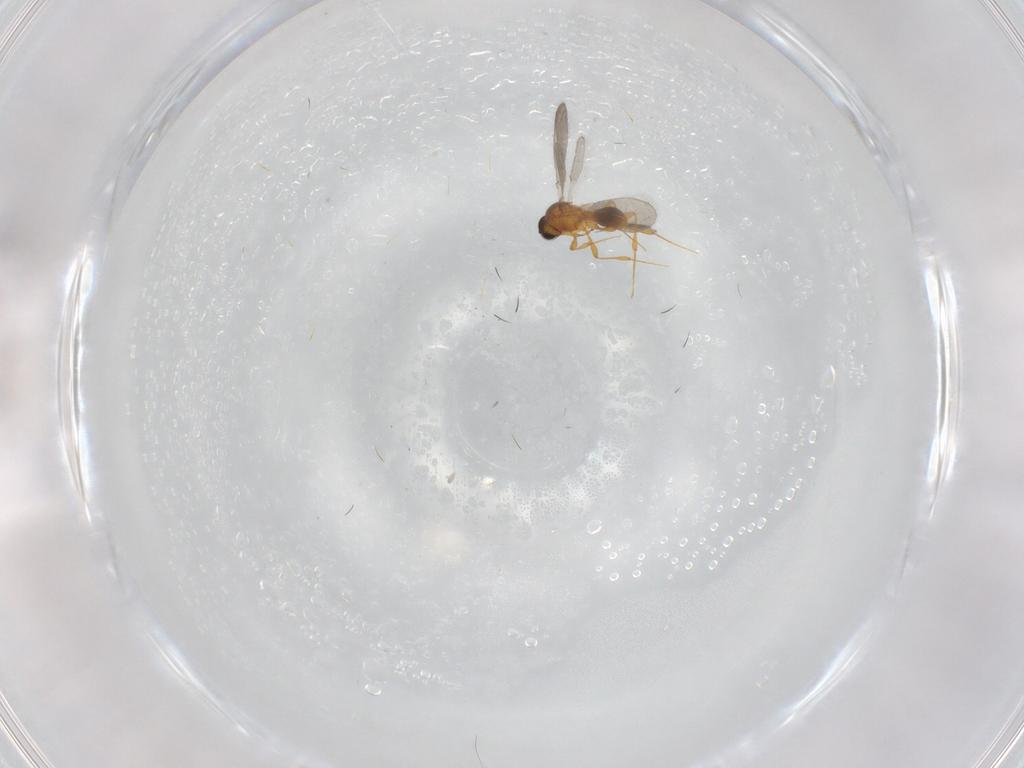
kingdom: Animalia
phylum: Arthropoda
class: Insecta
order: Hymenoptera
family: Platygastridae
